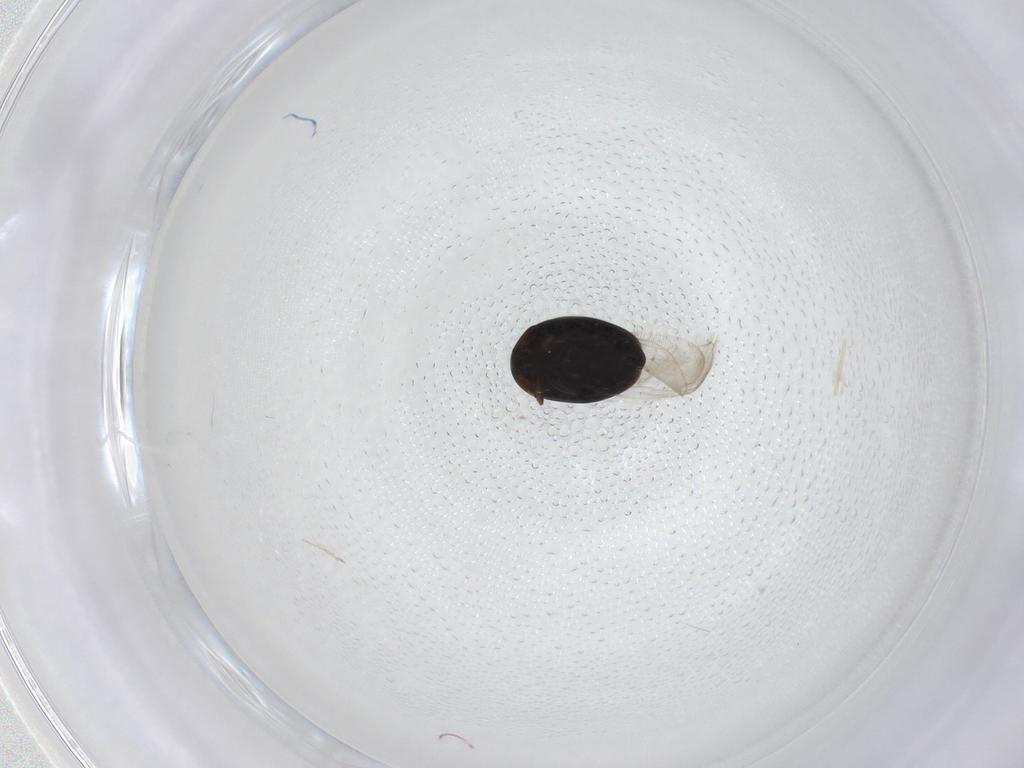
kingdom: Animalia
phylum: Arthropoda
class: Insecta
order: Coleoptera
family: Corylophidae
